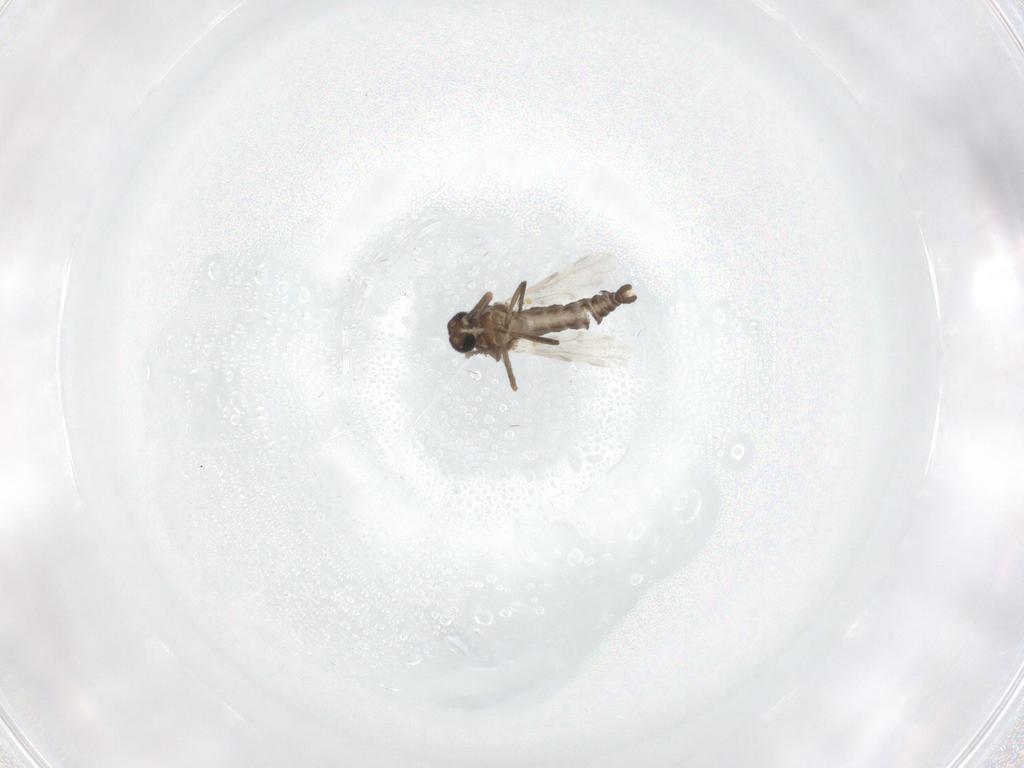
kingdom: Animalia
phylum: Arthropoda
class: Insecta
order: Diptera
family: Ceratopogonidae
